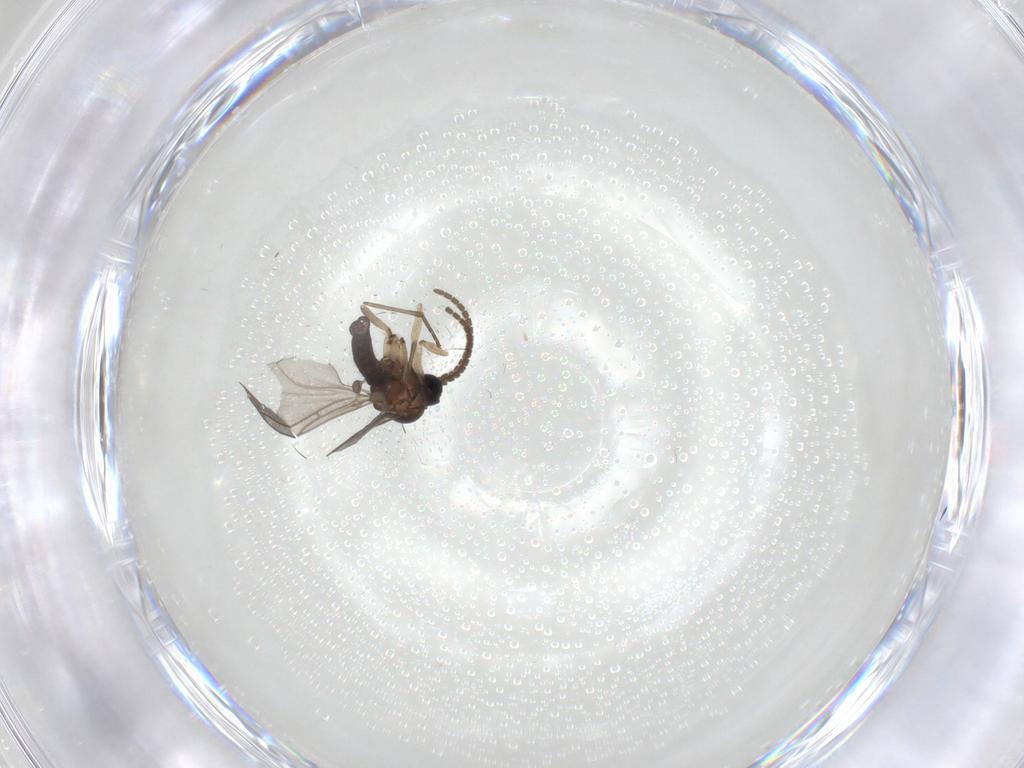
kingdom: Animalia
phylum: Arthropoda
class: Insecta
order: Diptera
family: Sciaridae
